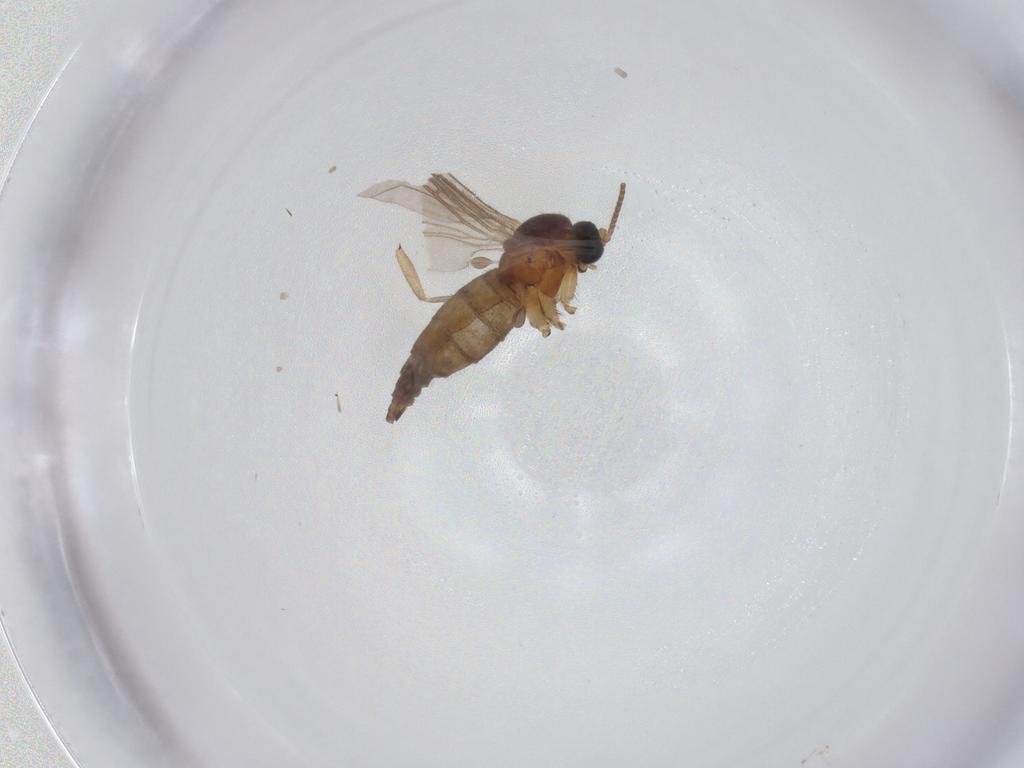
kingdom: Animalia
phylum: Arthropoda
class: Insecta
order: Diptera
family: Sciaridae
